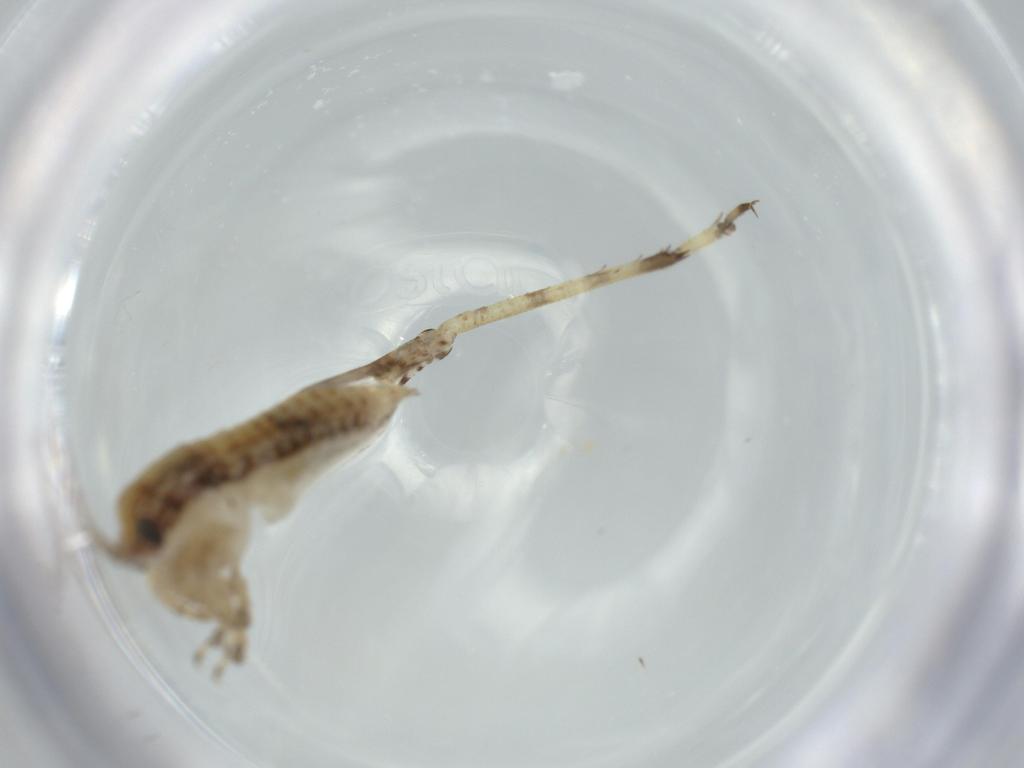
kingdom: Animalia
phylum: Arthropoda
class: Insecta
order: Orthoptera
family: Gryllidae
